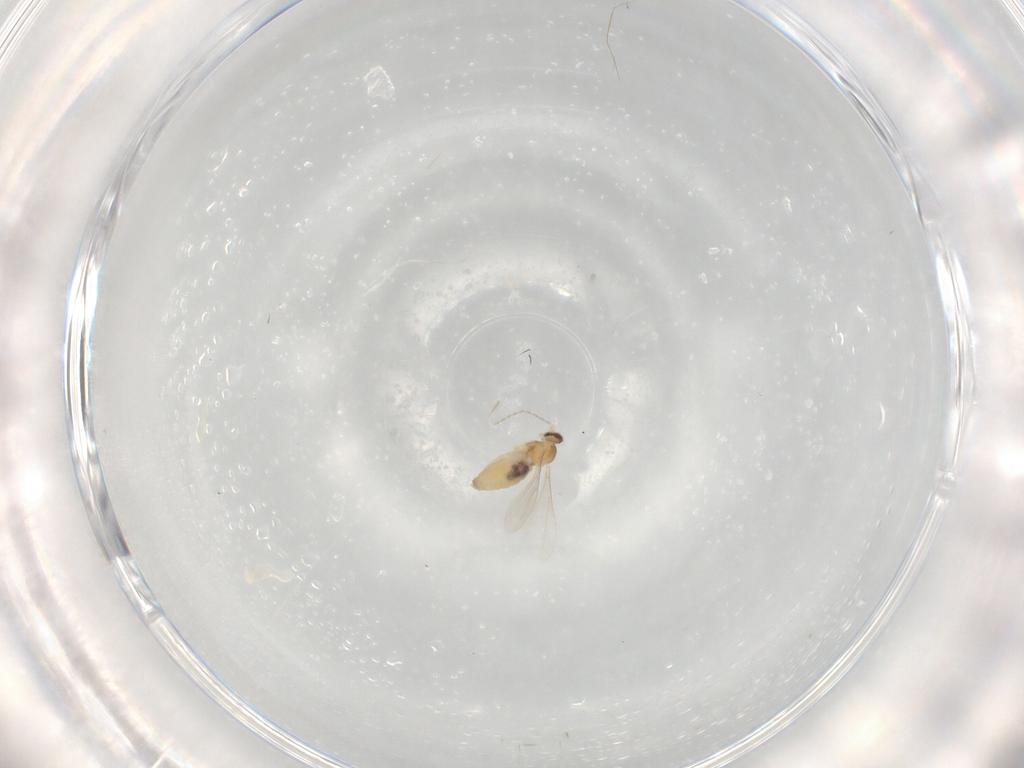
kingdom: Animalia
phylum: Arthropoda
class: Insecta
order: Diptera
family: Cecidomyiidae
